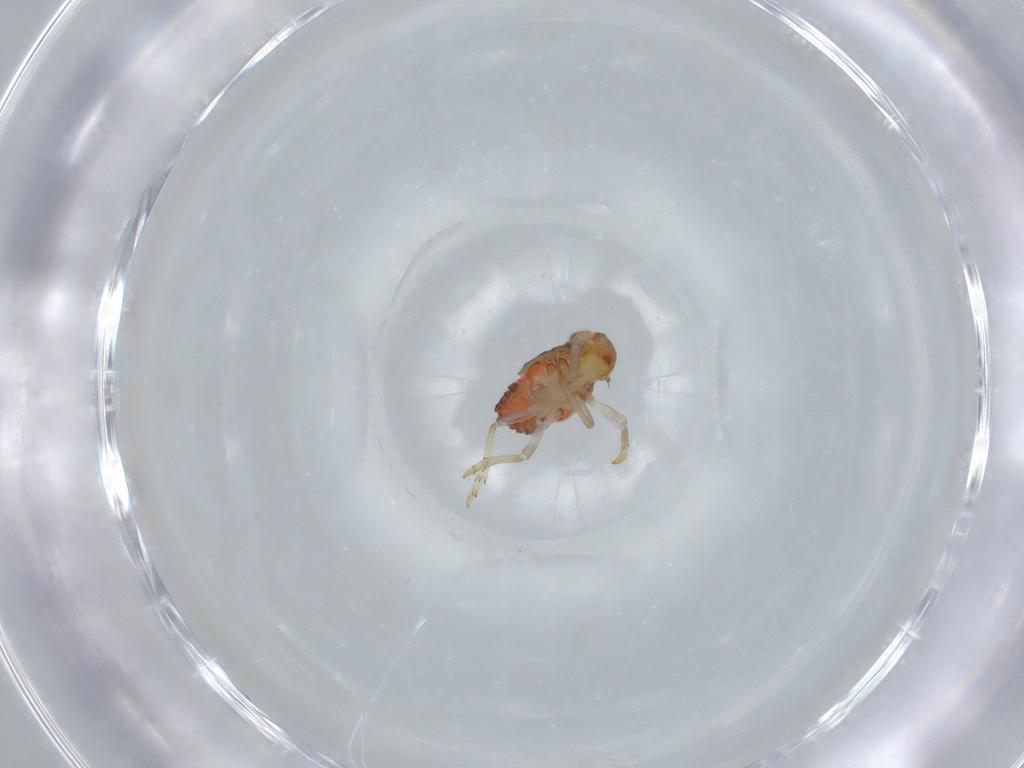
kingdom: Animalia
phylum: Arthropoda
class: Insecta
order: Hemiptera
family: Issidae
